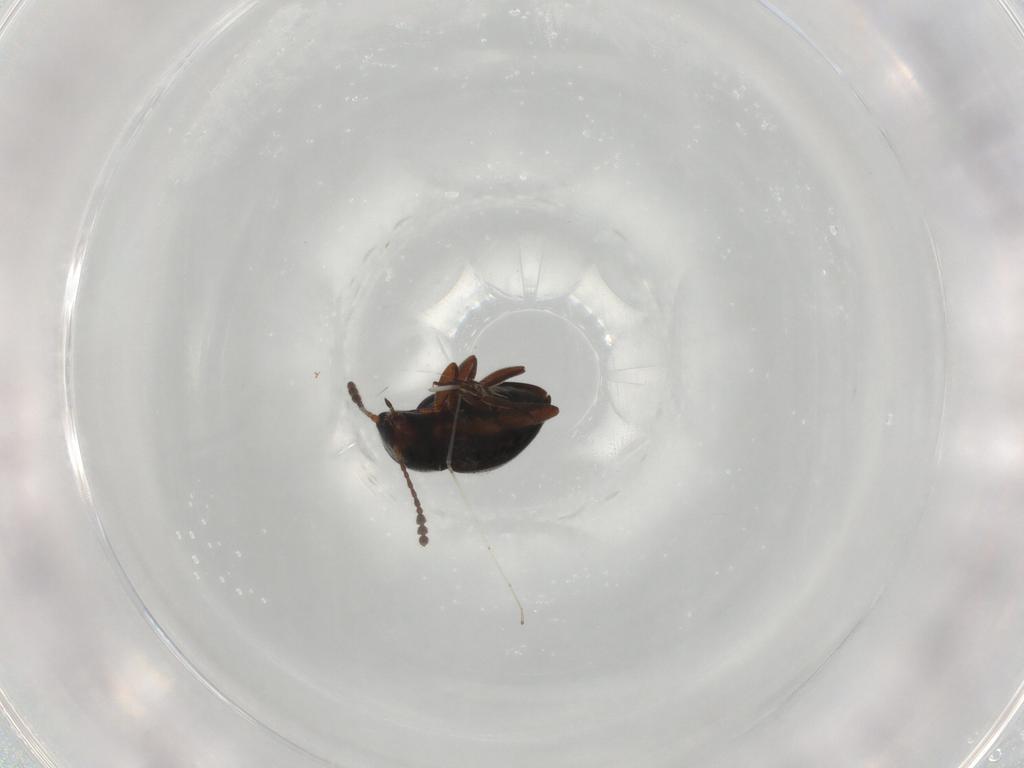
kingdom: Animalia
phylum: Arthropoda
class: Insecta
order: Coleoptera
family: Erotylidae
